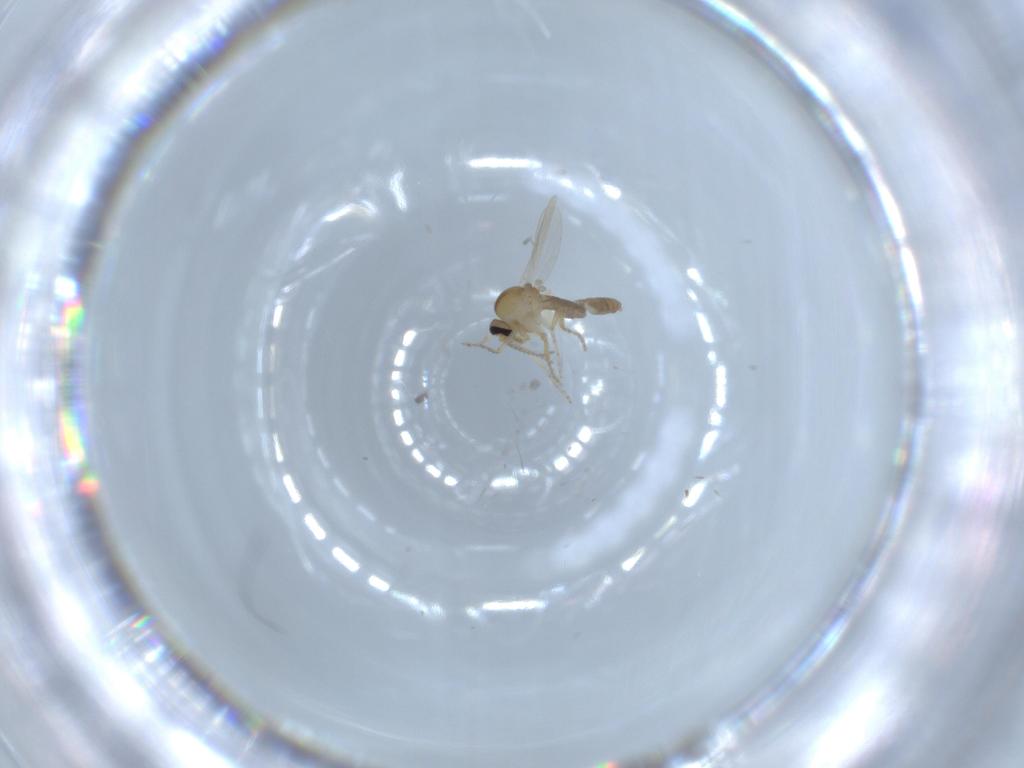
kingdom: Animalia
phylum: Arthropoda
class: Insecta
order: Diptera
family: Ceratopogonidae
